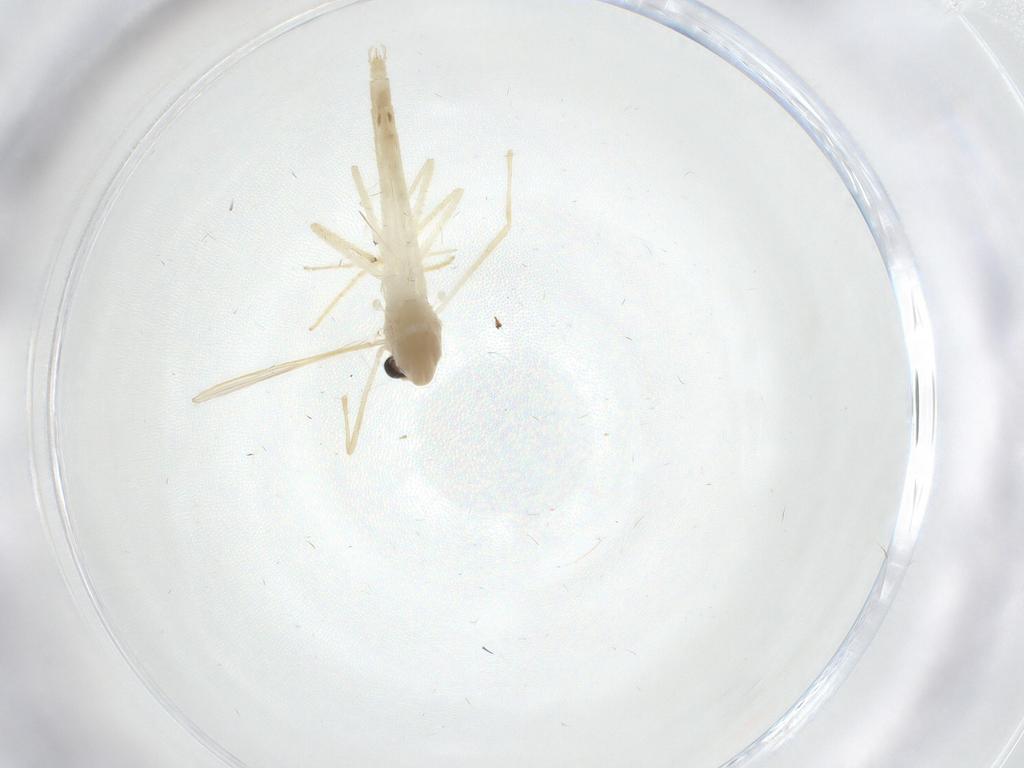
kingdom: Animalia
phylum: Arthropoda
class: Insecta
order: Diptera
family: Chironomidae
